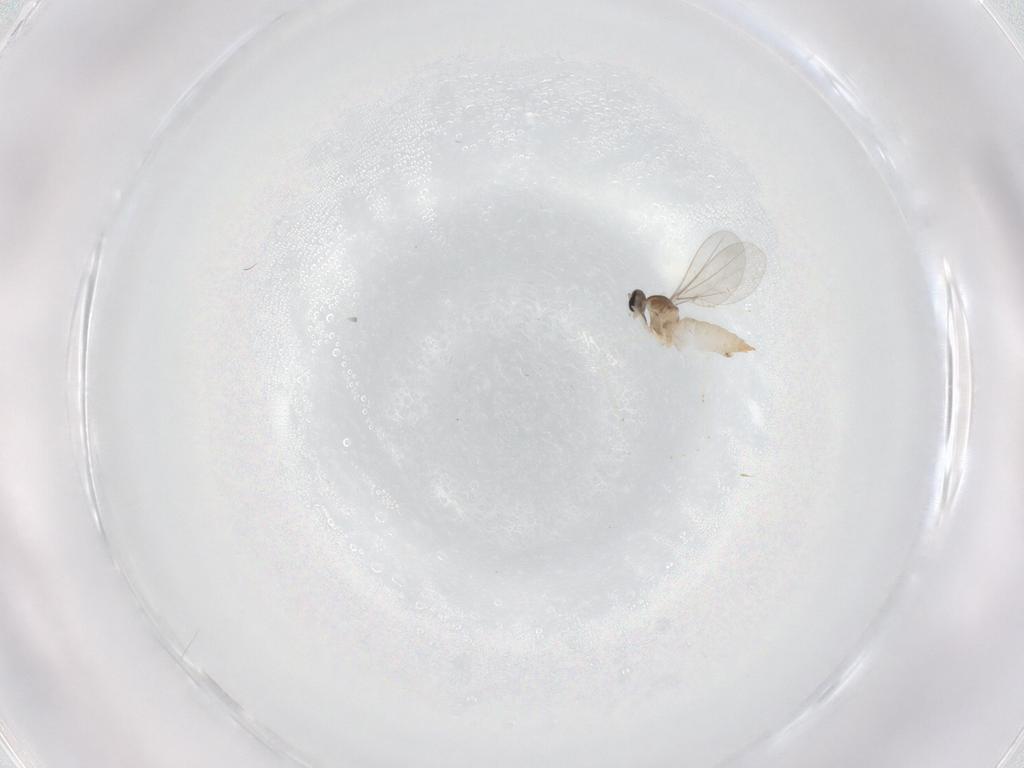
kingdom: Animalia
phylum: Arthropoda
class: Insecta
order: Diptera
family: Cecidomyiidae
